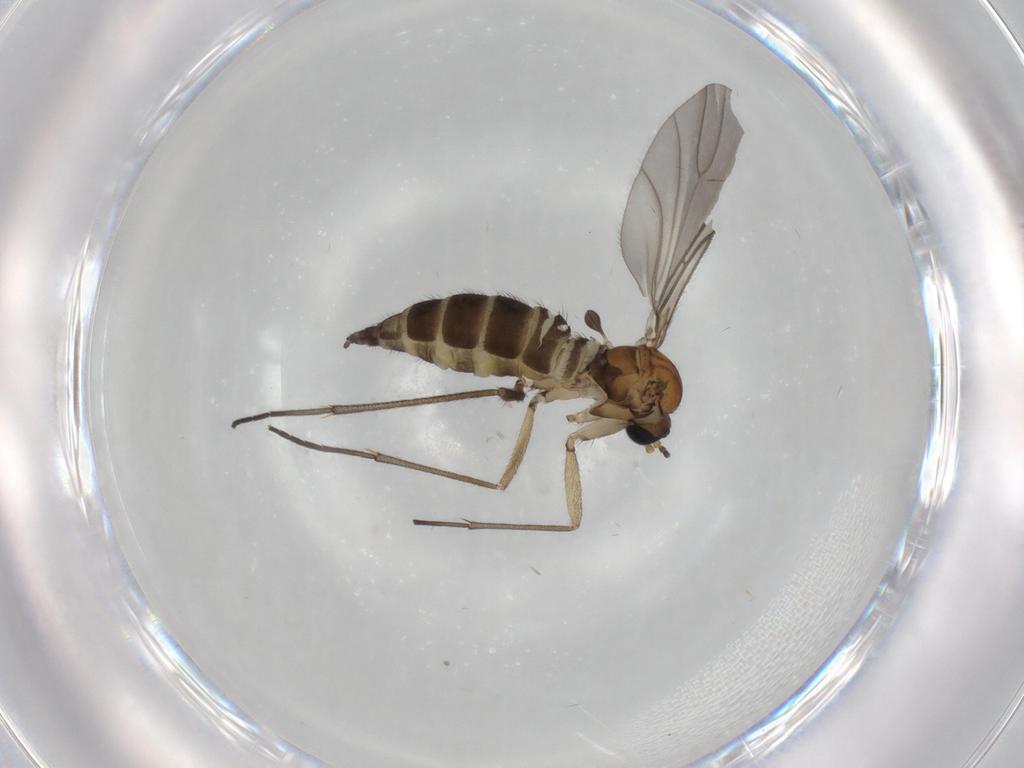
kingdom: Animalia
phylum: Arthropoda
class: Insecta
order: Diptera
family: Sciaridae
